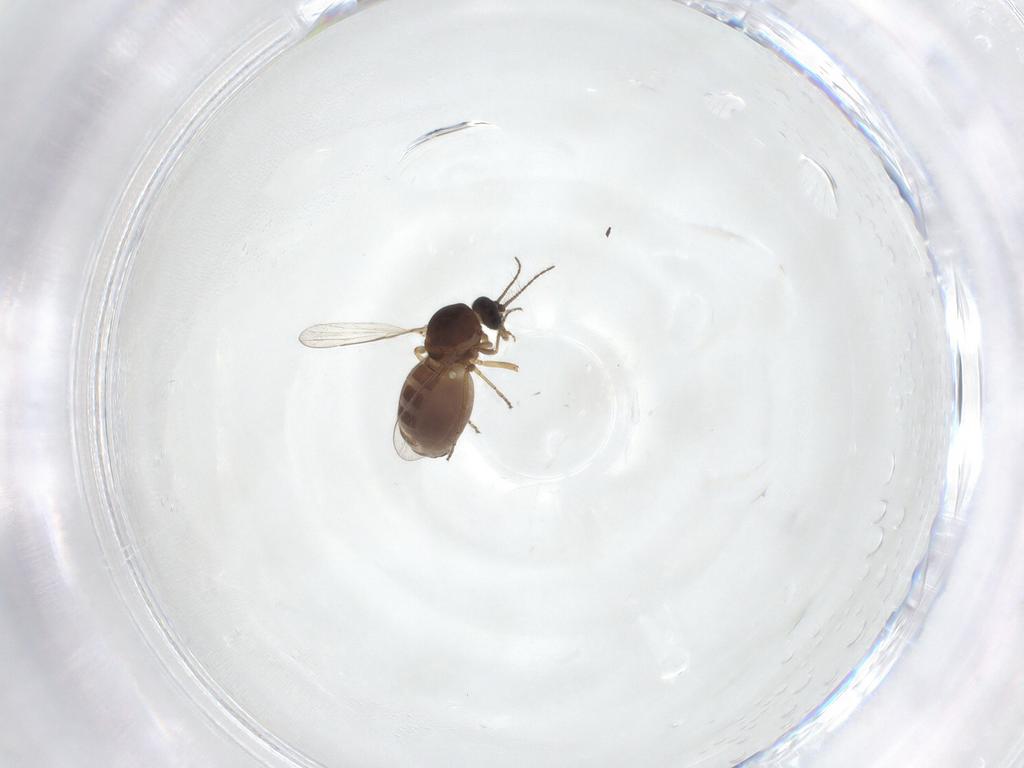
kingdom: Animalia
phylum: Arthropoda
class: Insecta
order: Diptera
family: Ceratopogonidae
